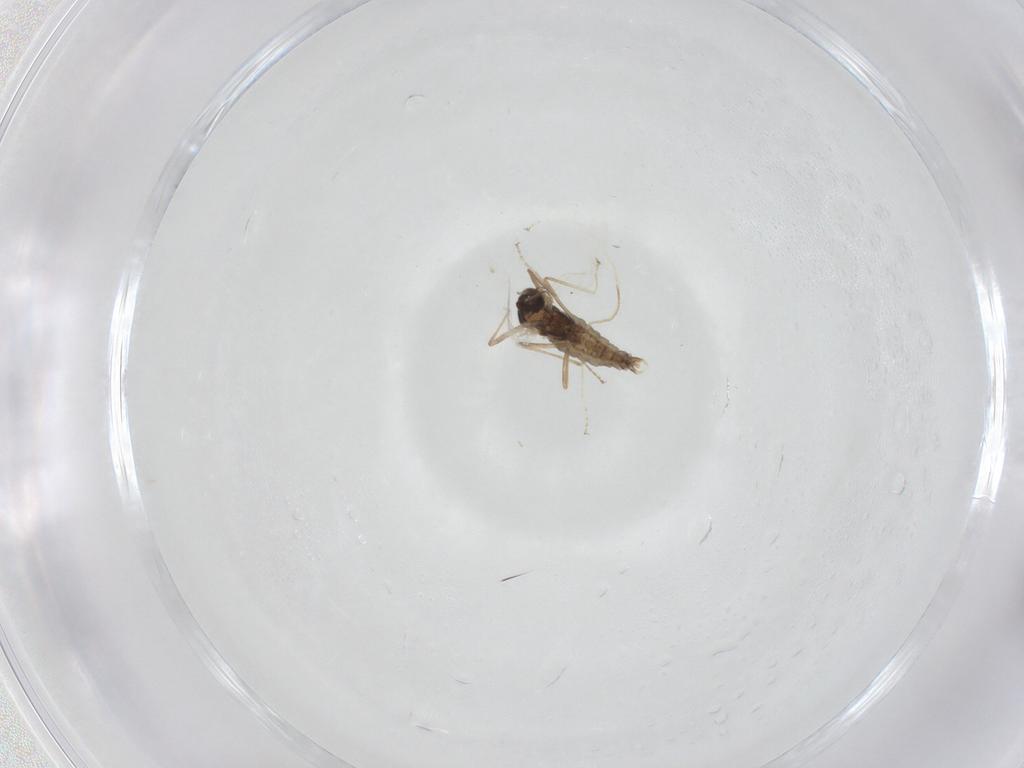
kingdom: Animalia
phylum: Arthropoda
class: Insecta
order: Diptera
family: Cecidomyiidae
